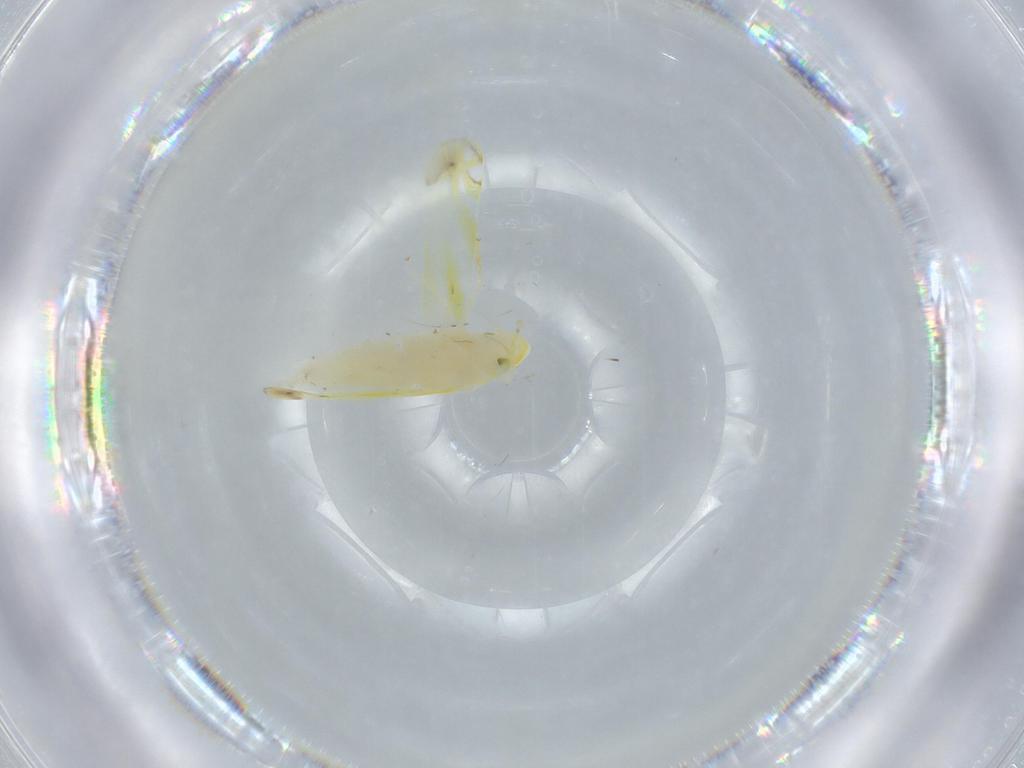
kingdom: Animalia
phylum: Arthropoda
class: Insecta
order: Hemiptera
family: Cicadellidae
